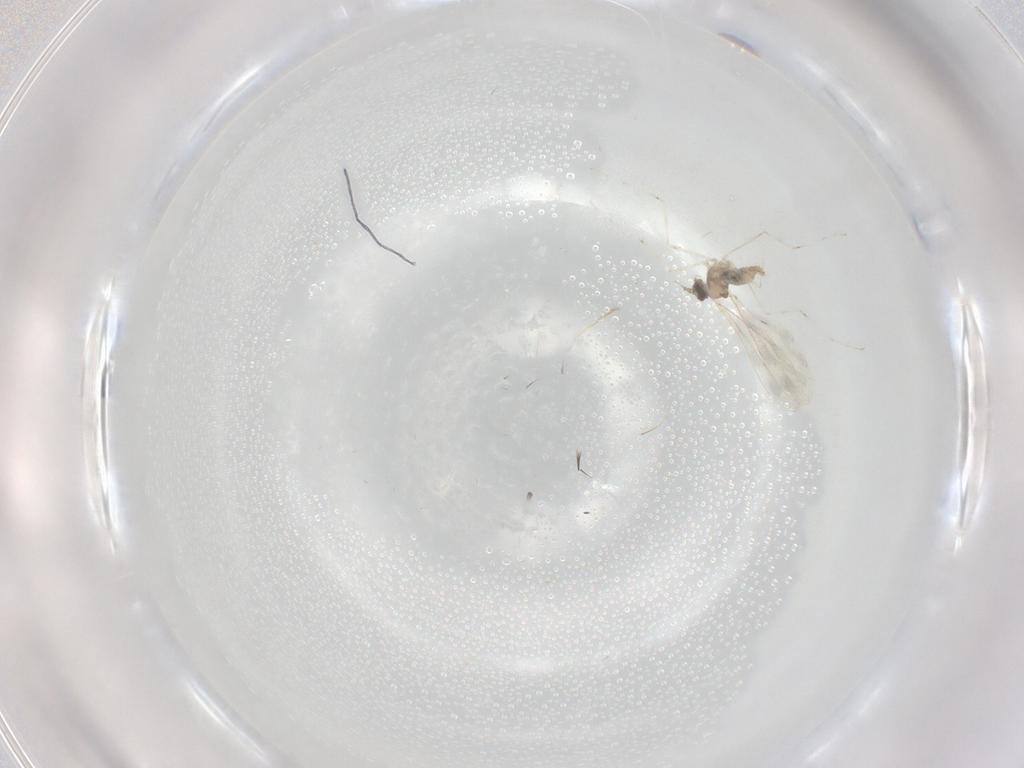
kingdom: Animalia
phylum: Arthropoda
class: Insecta
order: Diptera
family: Cecidomyiidae
